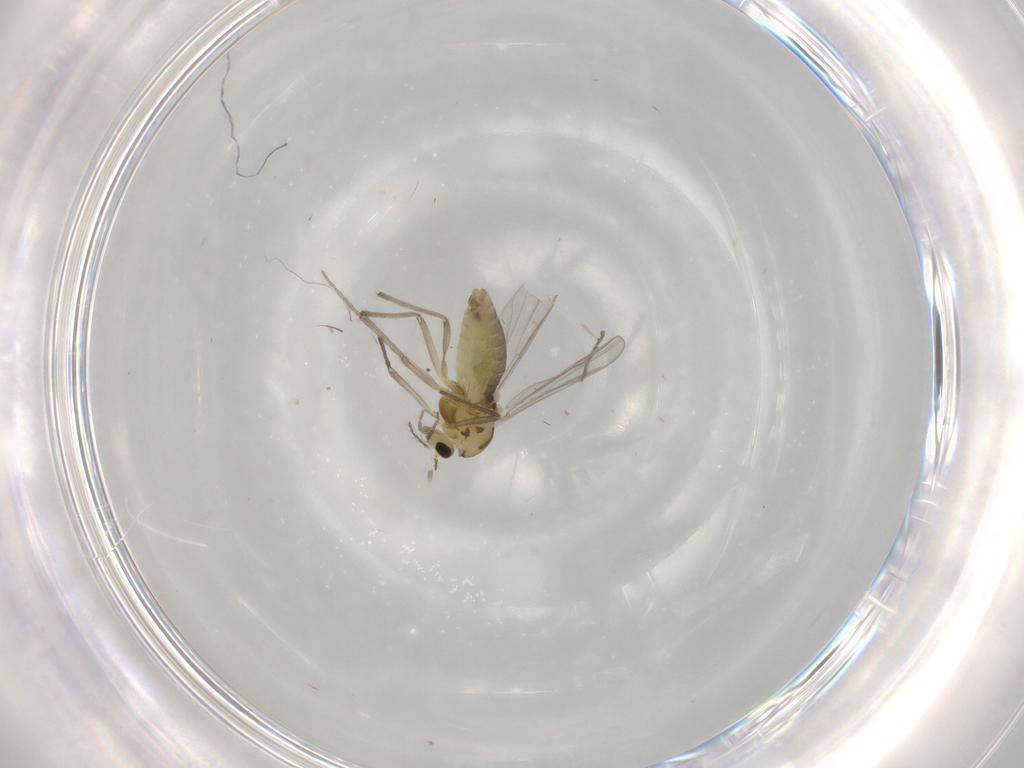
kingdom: Animalia
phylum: Arthropoda
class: Insecta
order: Diptera
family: Chironomidae
